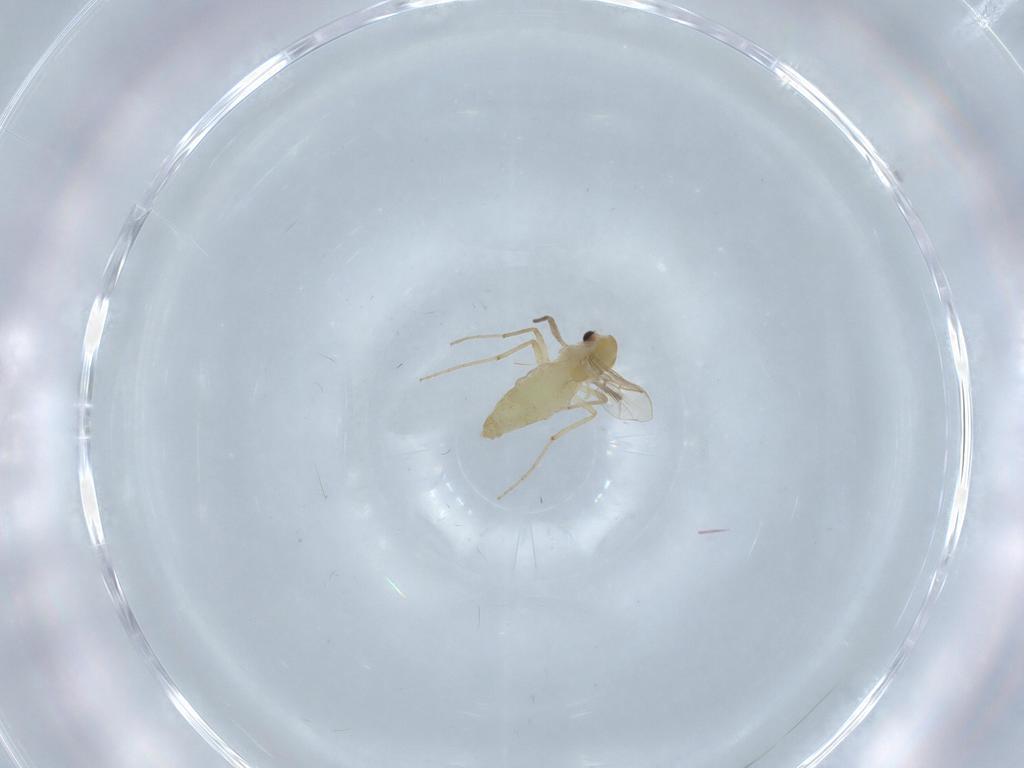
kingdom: Animalia
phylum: Arthropoda
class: Insecta
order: Diptera
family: Chironomidae
